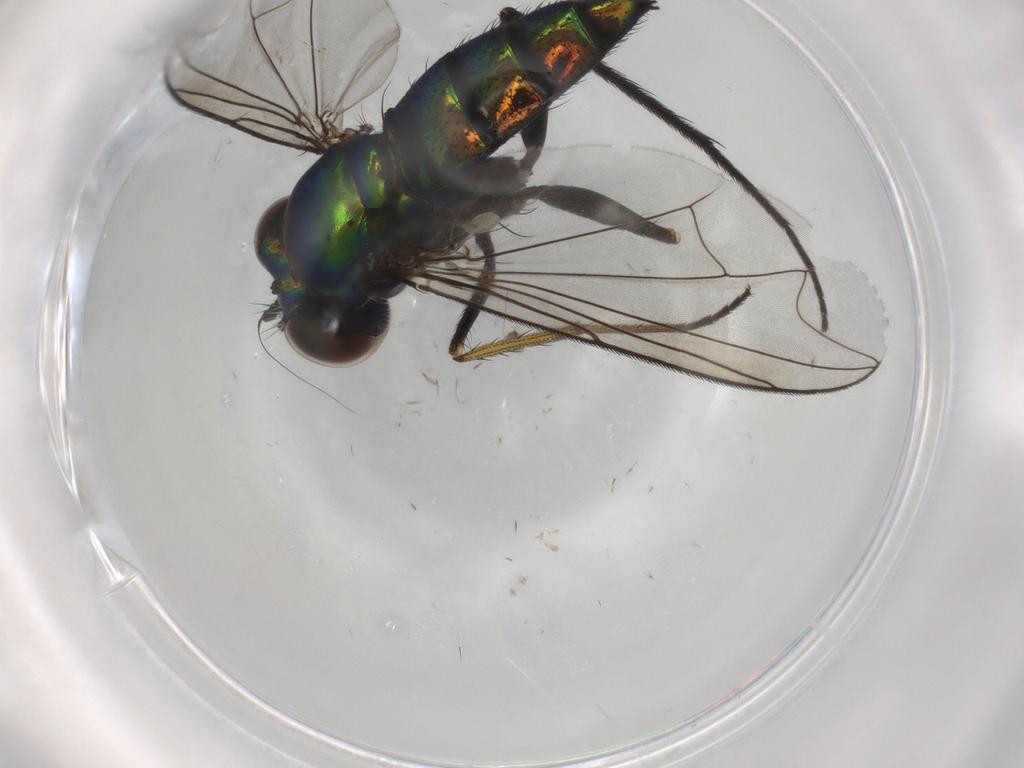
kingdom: Animalia
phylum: Arthropoda
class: Insecta
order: Diptera
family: Dolichopodidae
